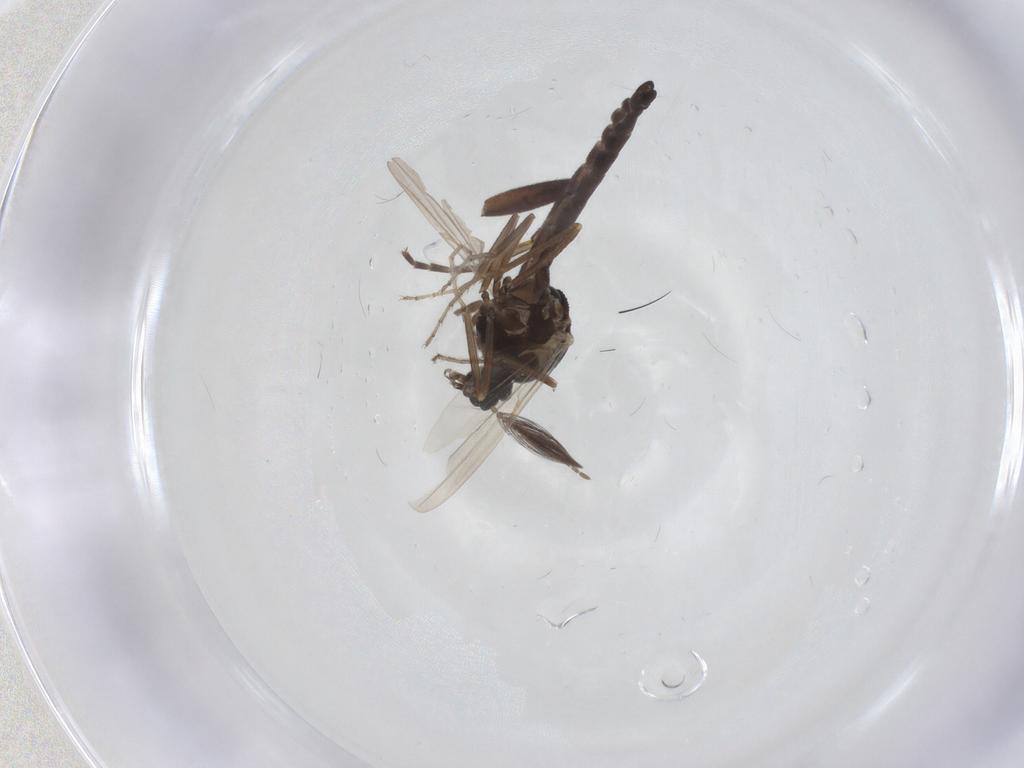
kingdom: Animalia
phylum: Arthropoda
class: Insecta
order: Diptera
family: Ceratopogonidae
